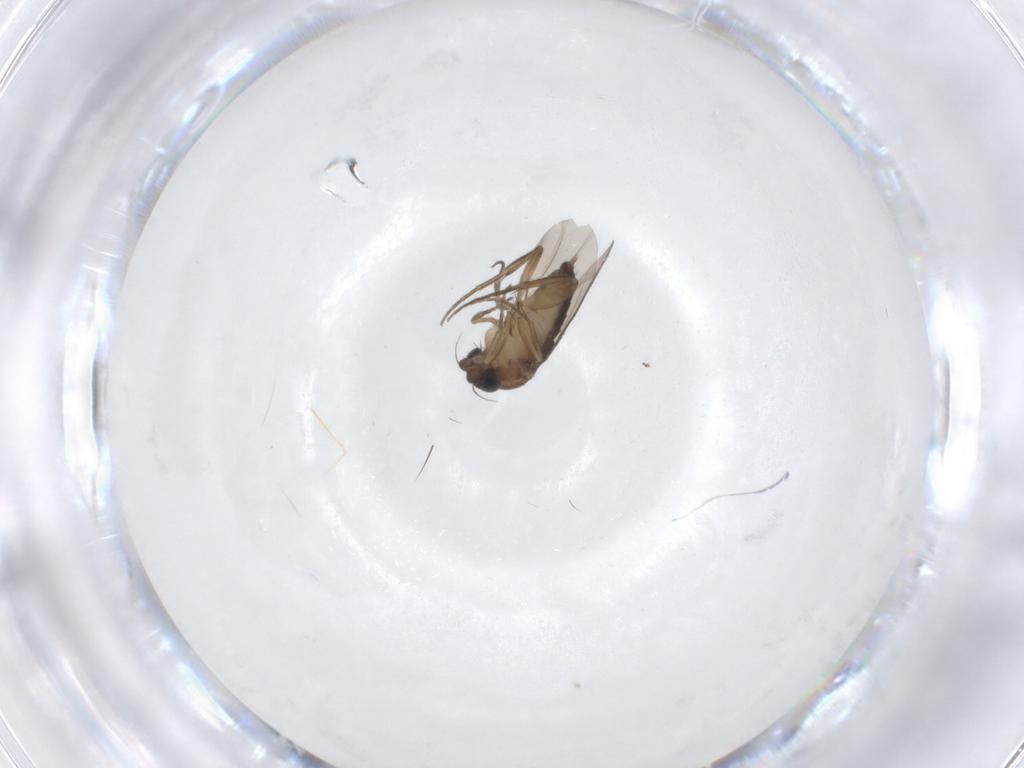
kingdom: Animalia
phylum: Arthropoda
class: Insecta
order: Diptera
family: Phoridae
